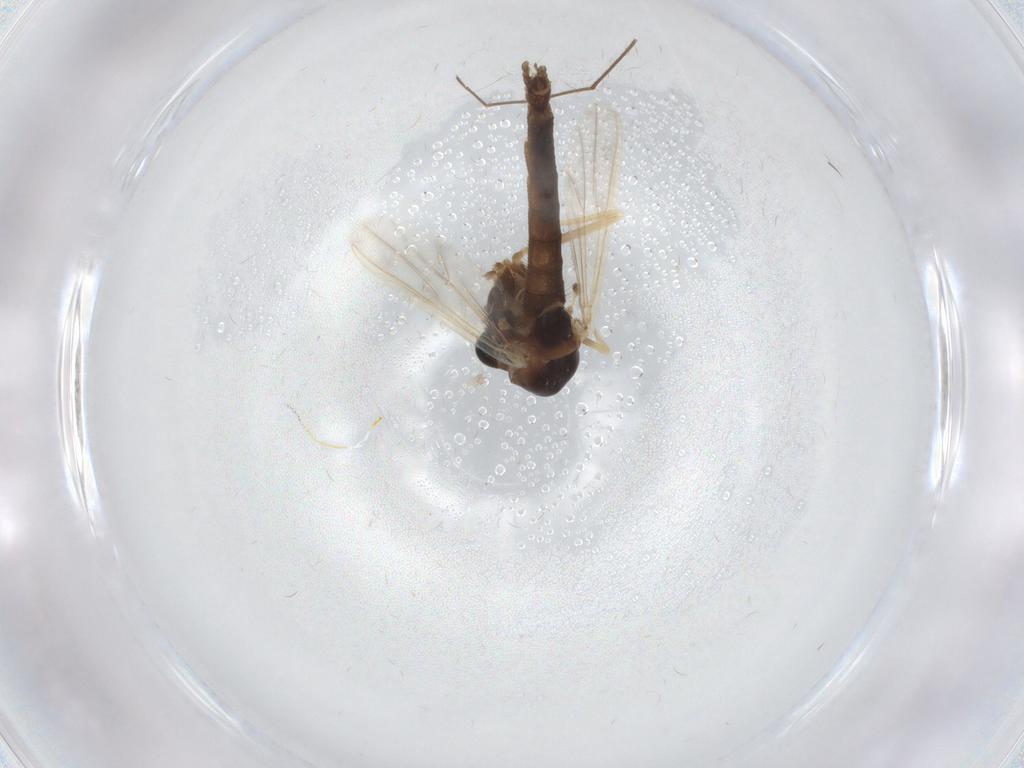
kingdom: Animalia
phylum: Arthropoda
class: Insecta
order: Diptera
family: Chironomidae
